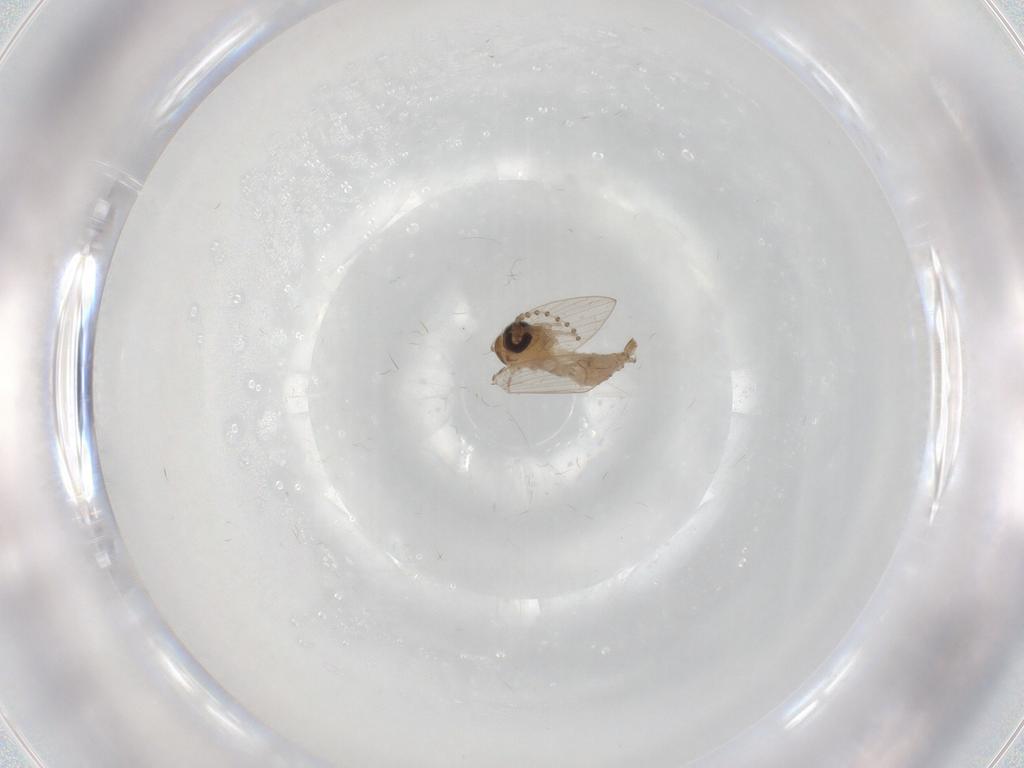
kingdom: Animalia
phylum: Arthropoda
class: Insecta
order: Diptera
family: Psychodidae
